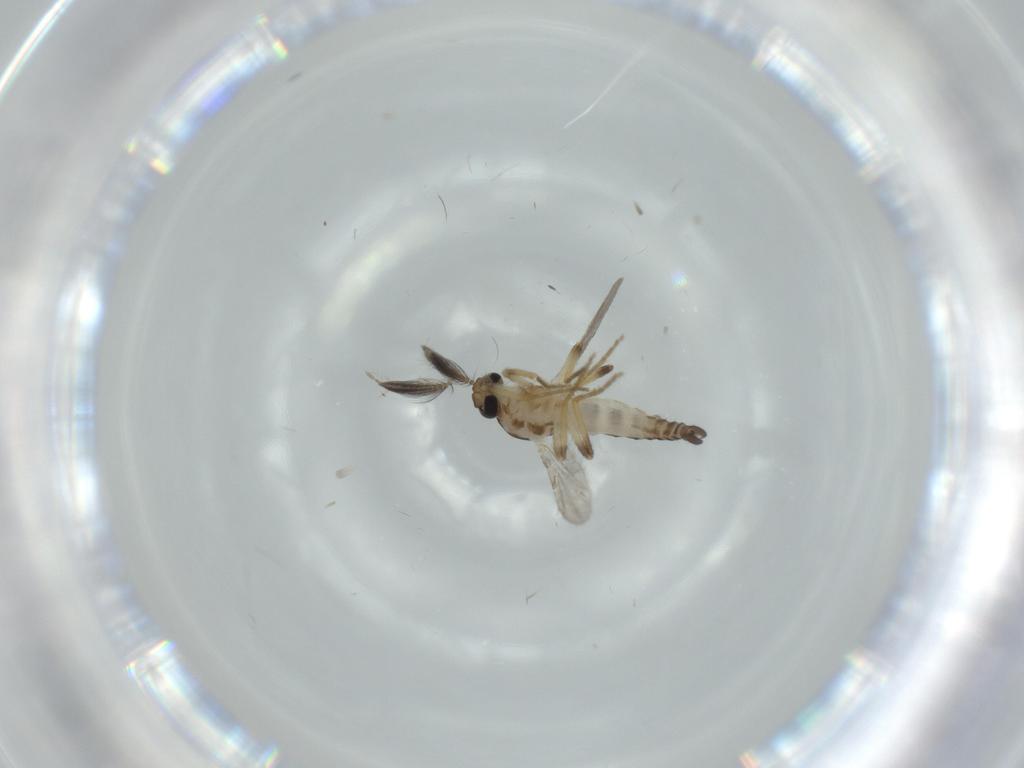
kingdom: Animalia
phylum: Arthropoda
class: Insecta
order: Diptera
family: Ceratopogonidae
